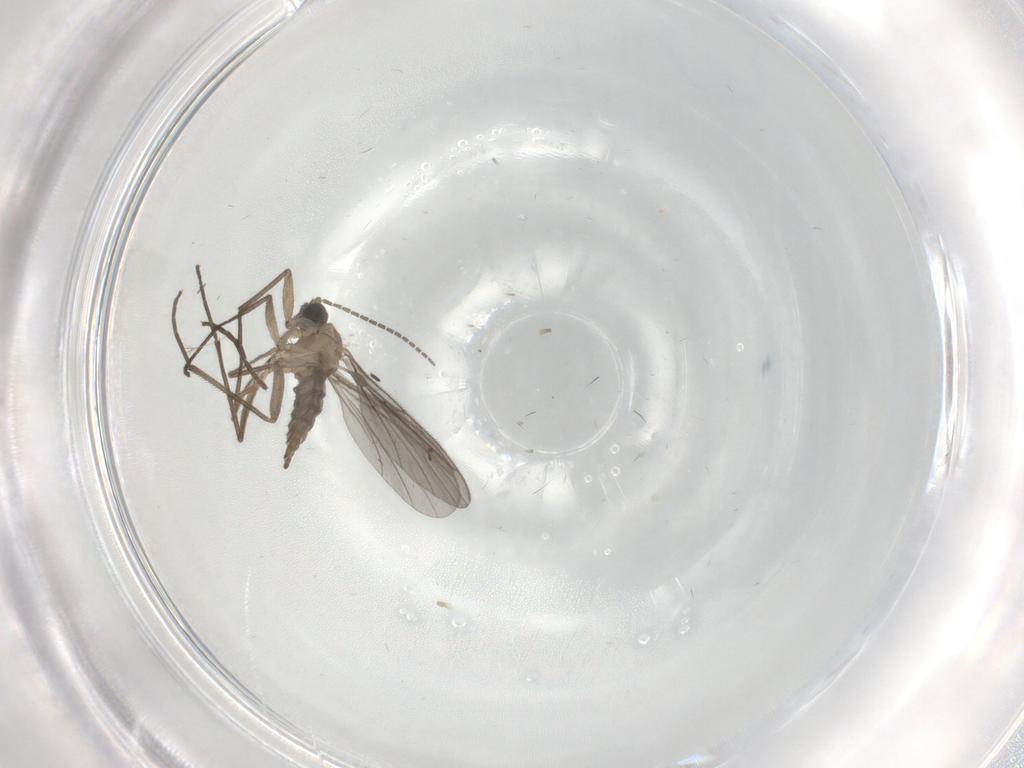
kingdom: Animalia
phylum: Arthropoda
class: Insecta
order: Diptera
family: Sciaridae
